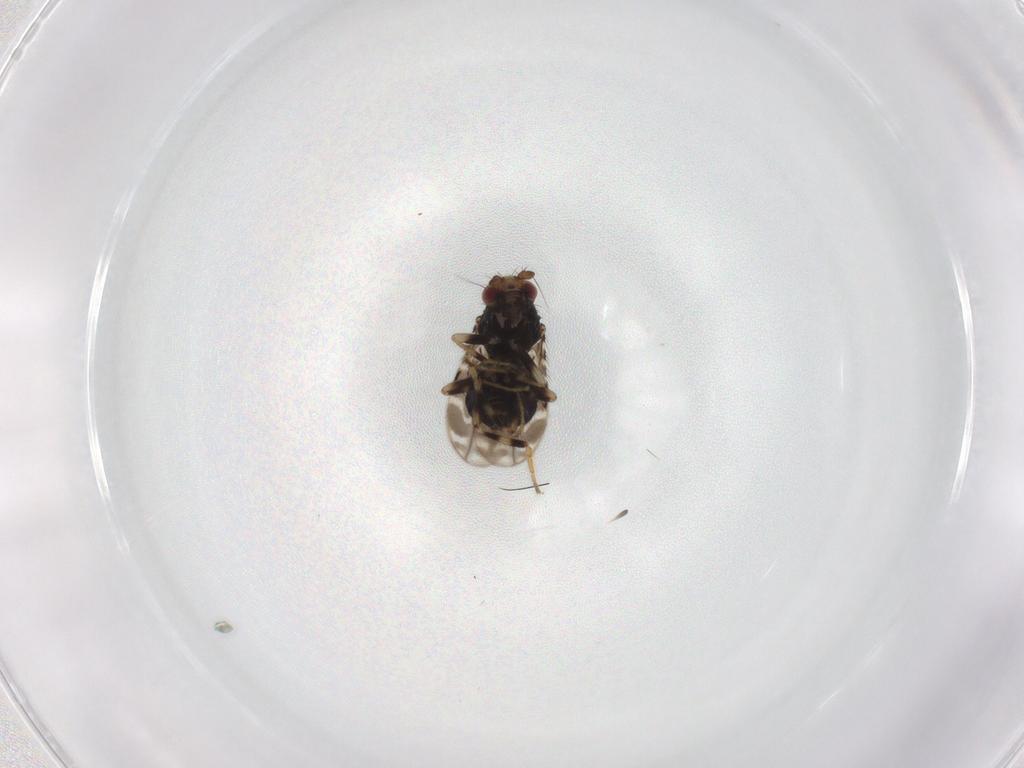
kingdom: Animalia
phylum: Arthropoda
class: Insecta
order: Diptera
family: Sphaeroceridae
